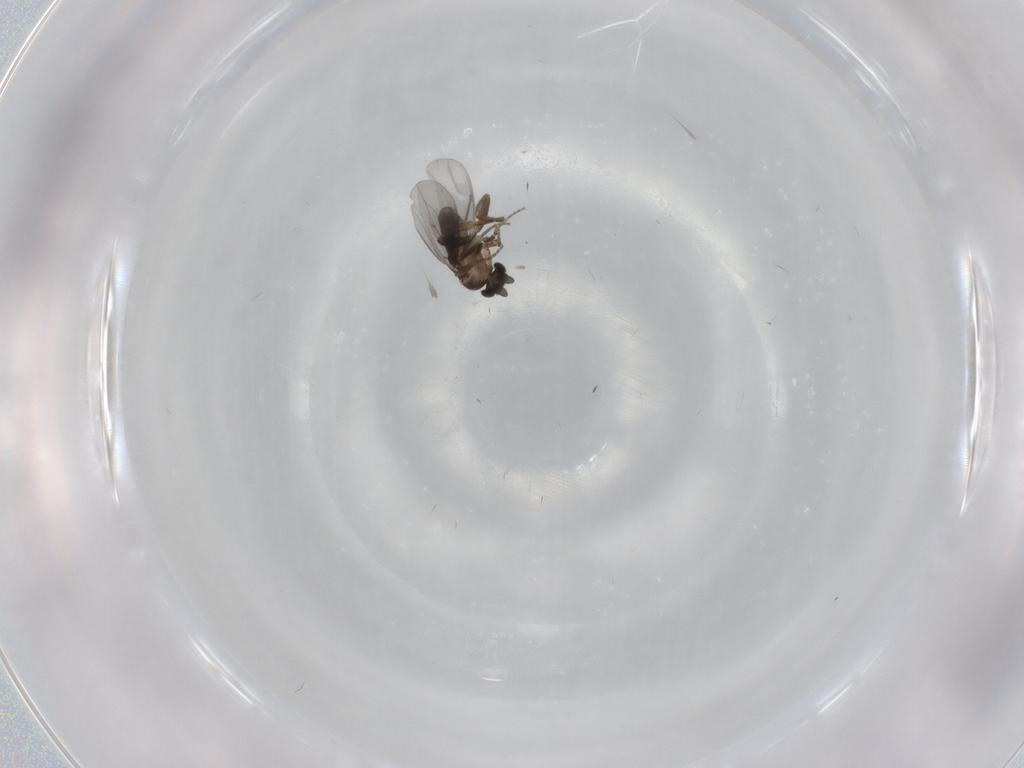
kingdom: Animalia
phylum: Arthropoda
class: Insecta
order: Diptera
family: Phoridae
